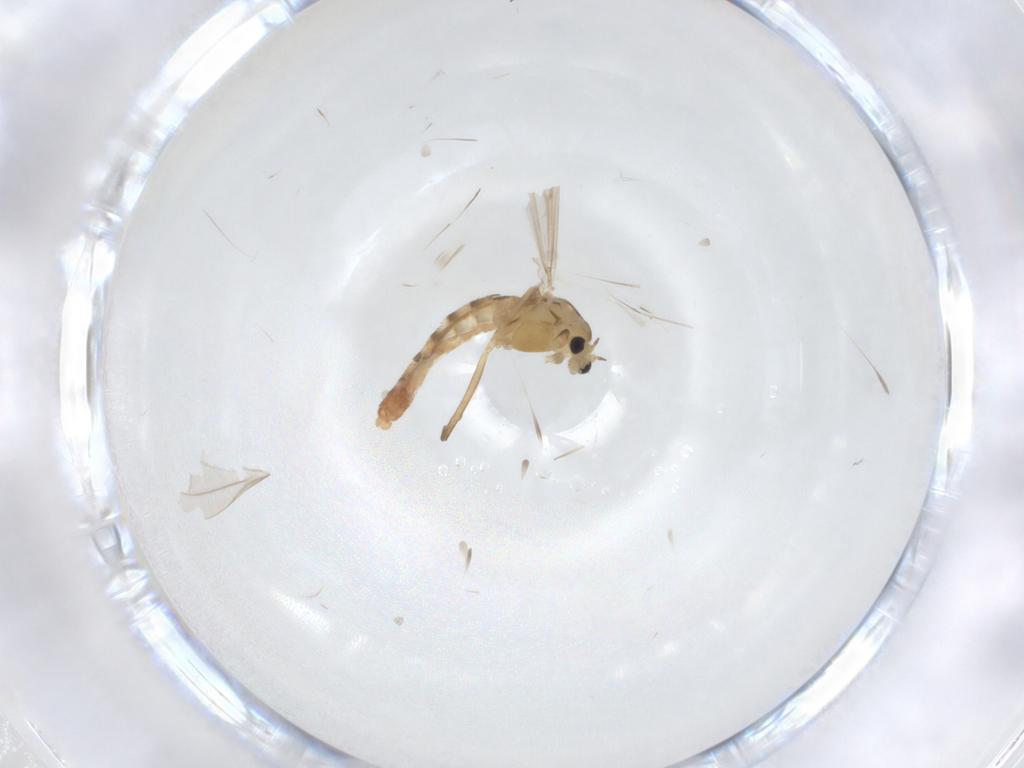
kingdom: Animalia
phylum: Arthropoda
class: Insecta
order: Diptera
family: Chironomidae
